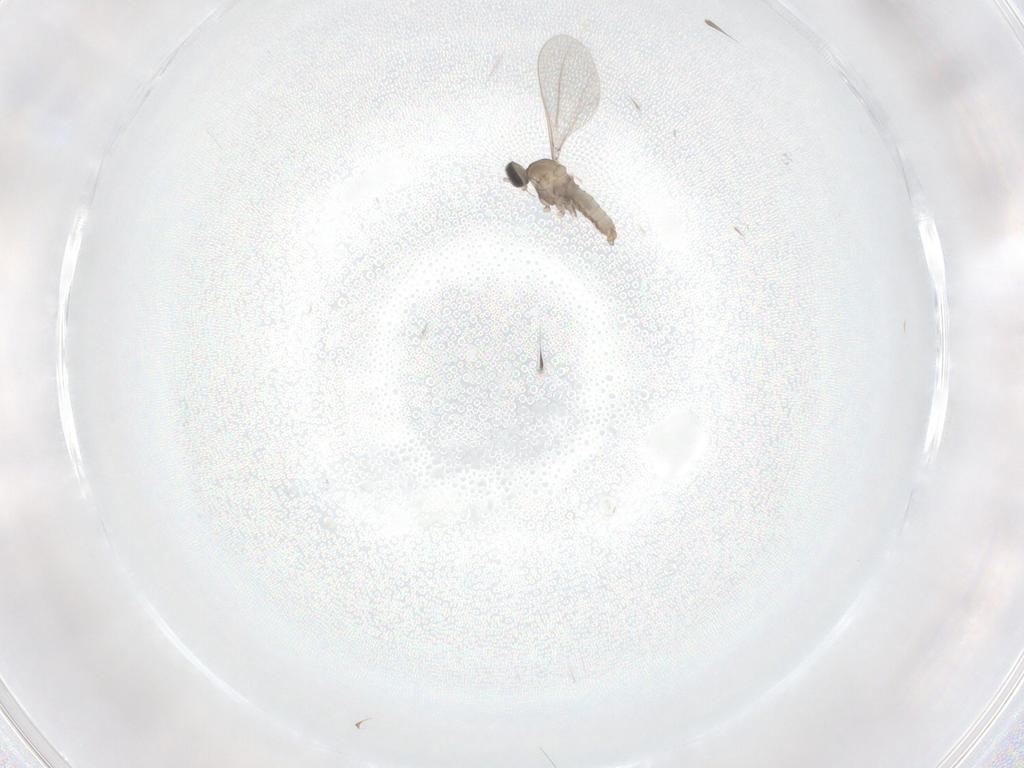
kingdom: Animalia
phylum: Arthropoda
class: Insecta
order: Diptera
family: Cecidomyiidae
